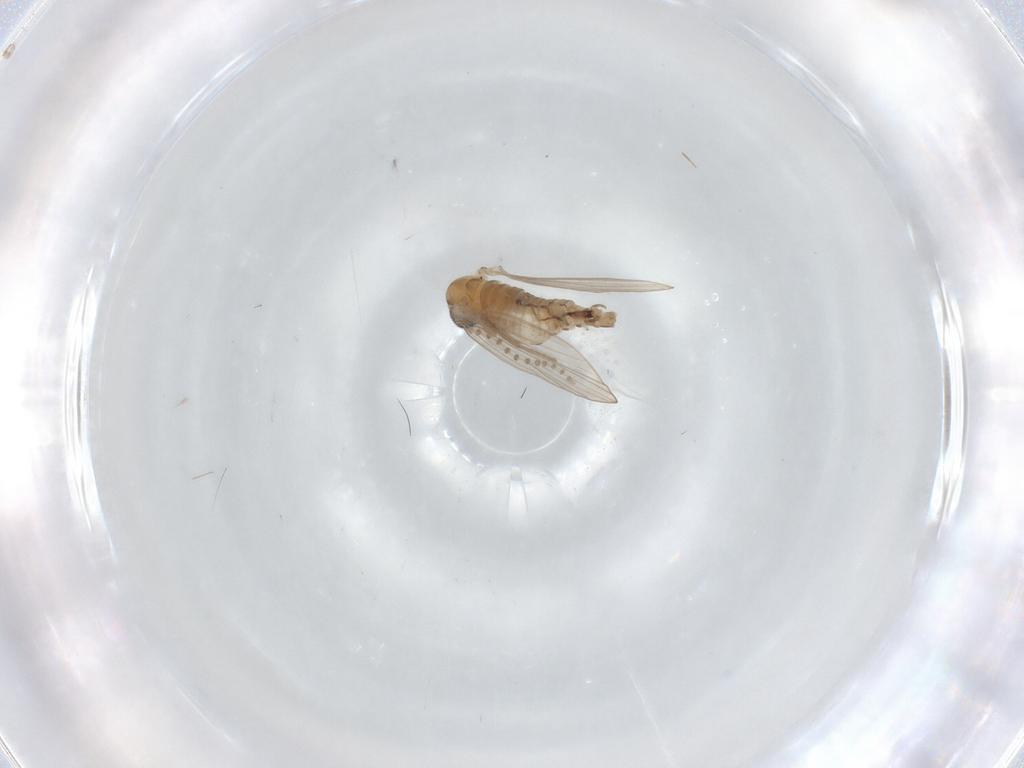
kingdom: Animalia
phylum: Arthropoda
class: Insecta
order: Diptera
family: Psychodidae
